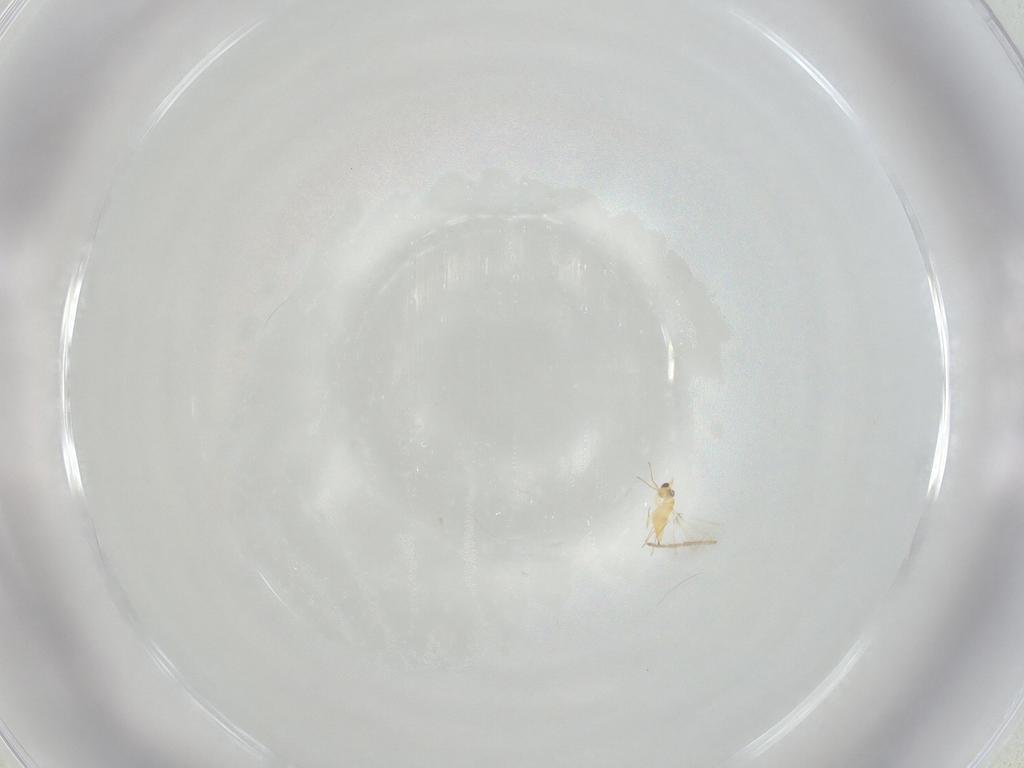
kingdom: Animalia
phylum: Arthropoda
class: Insecta
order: Hymenoptera
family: Mymaridae
